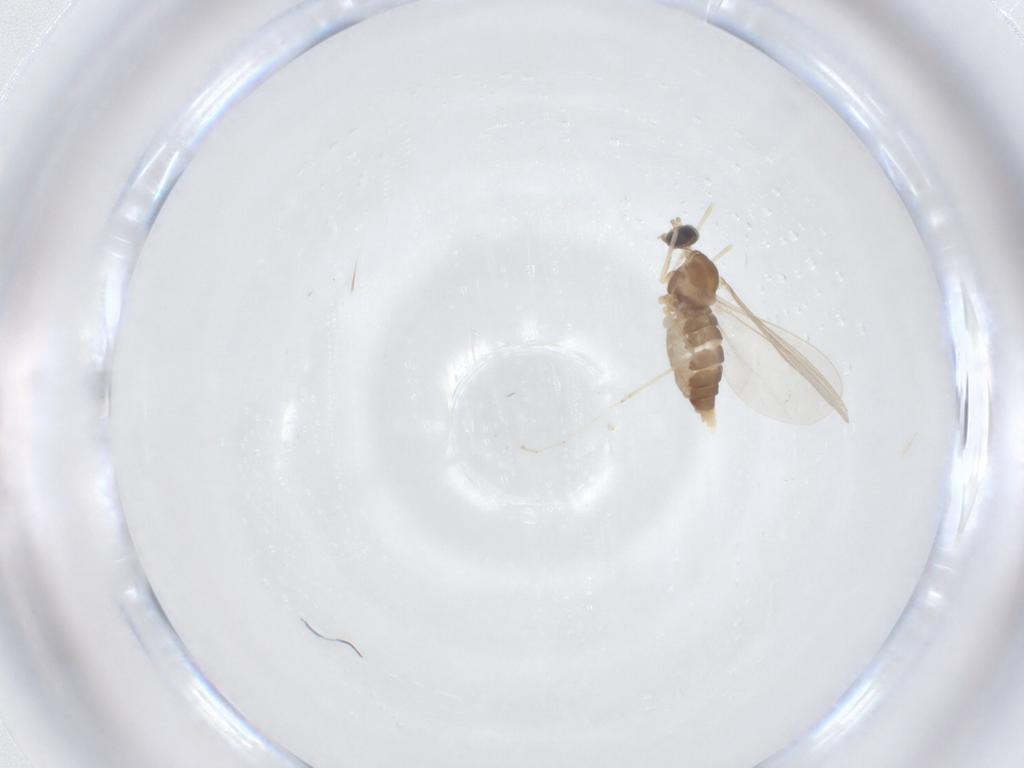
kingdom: Animalia
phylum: Arthropoda
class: Insecta
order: Diptera
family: Cecidomyiidae
